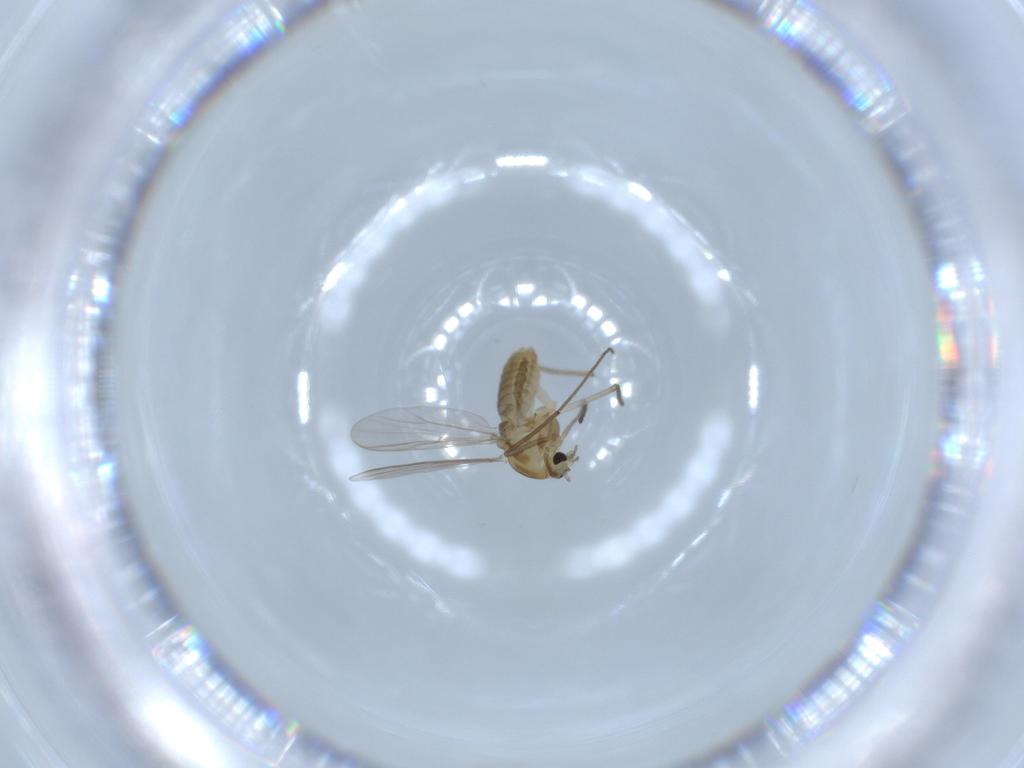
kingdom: Animalia
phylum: Arthropoda
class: Insecta
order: Diptera
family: Chironomidae
